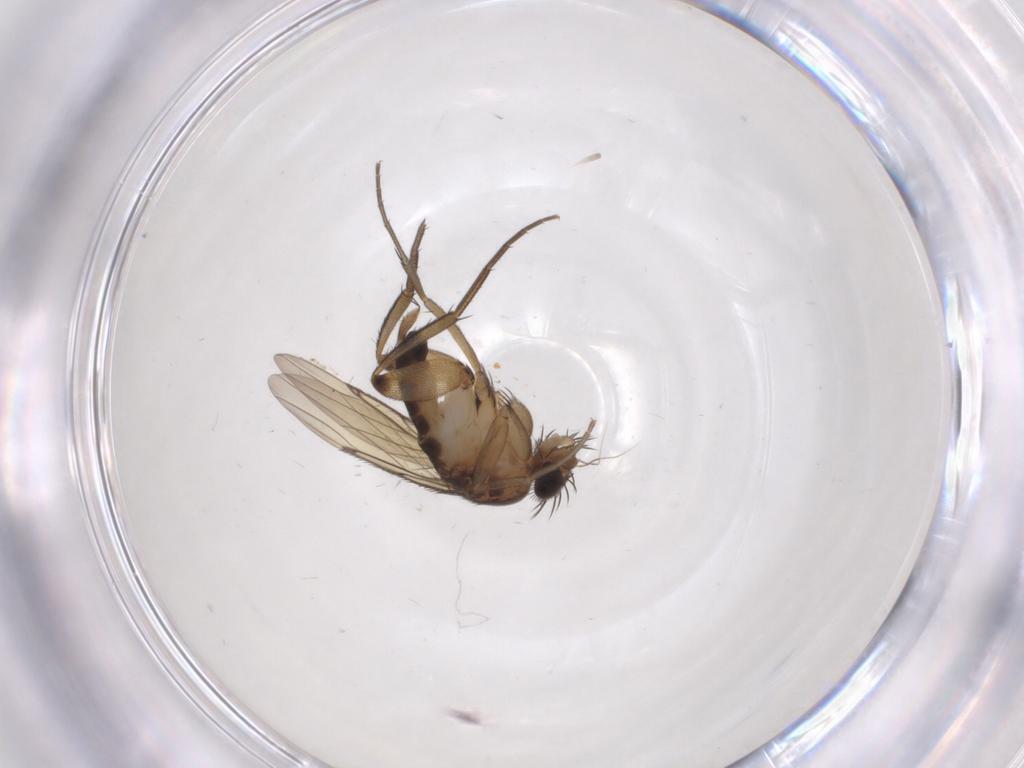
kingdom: Animalia
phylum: Arthropoda
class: Insecta
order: Diptera
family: Phoridae
